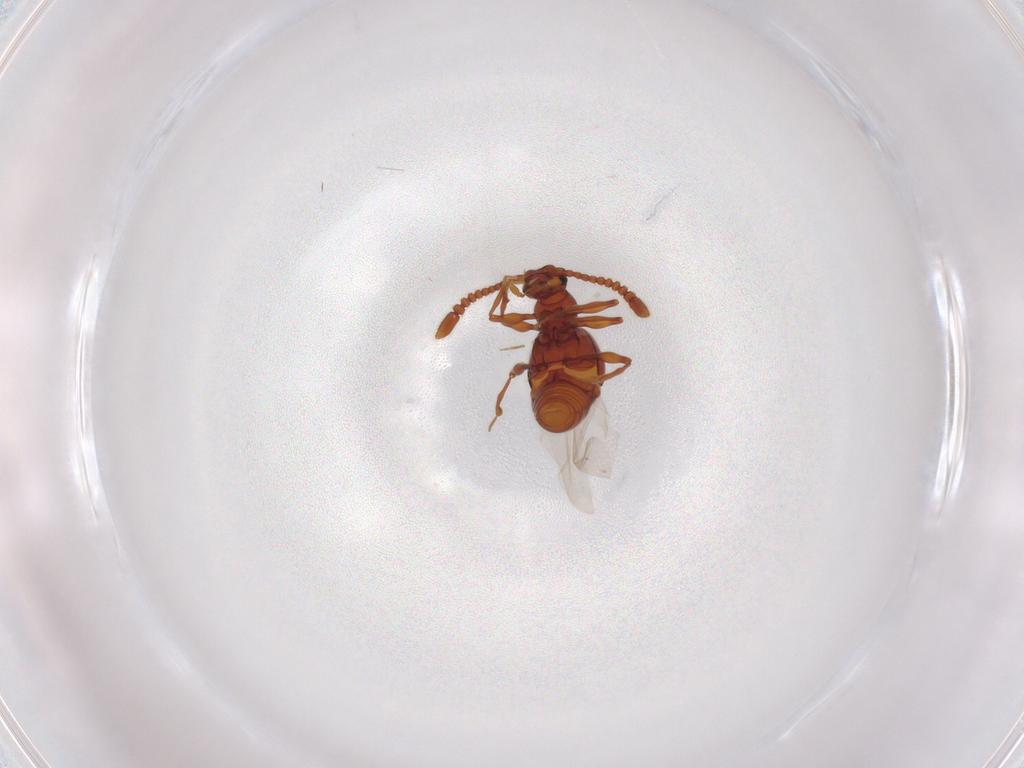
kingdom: Animalia
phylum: Arthropoda
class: Insecta
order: Coleoptera
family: Staphylinidae
